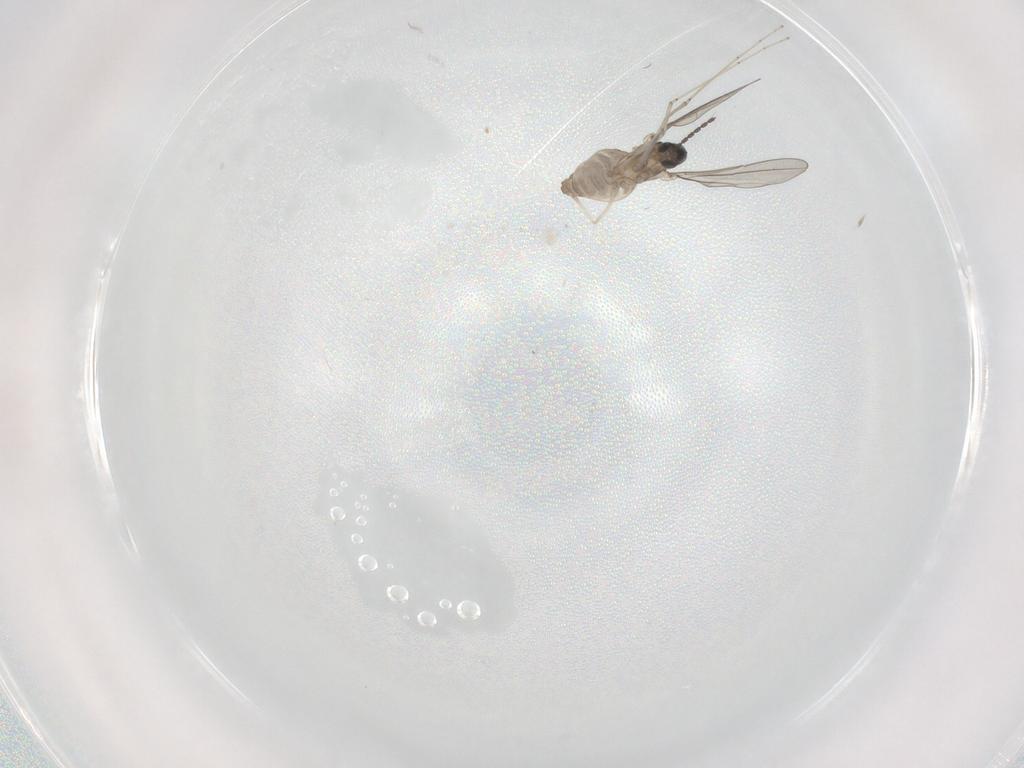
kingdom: Animalia
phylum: Arthropoda
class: Insecta
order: Diptera
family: Cecidomyiidae
